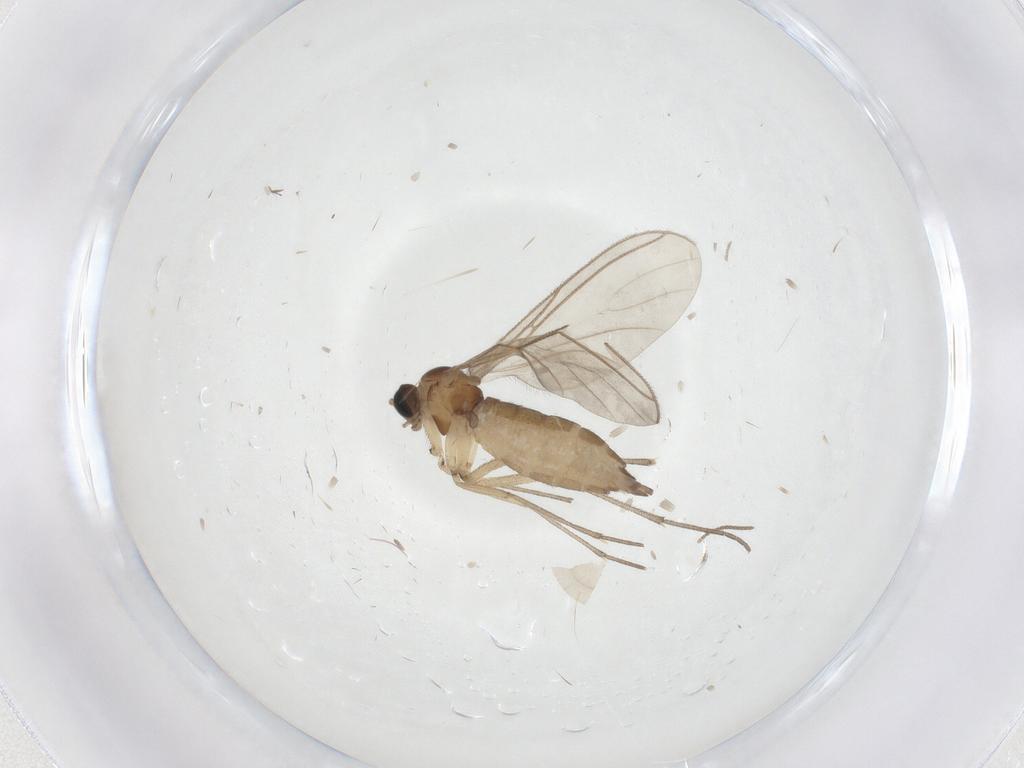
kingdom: Animalia
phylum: Arthropoda
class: Insecta
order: Diptera
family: Sciaridae
